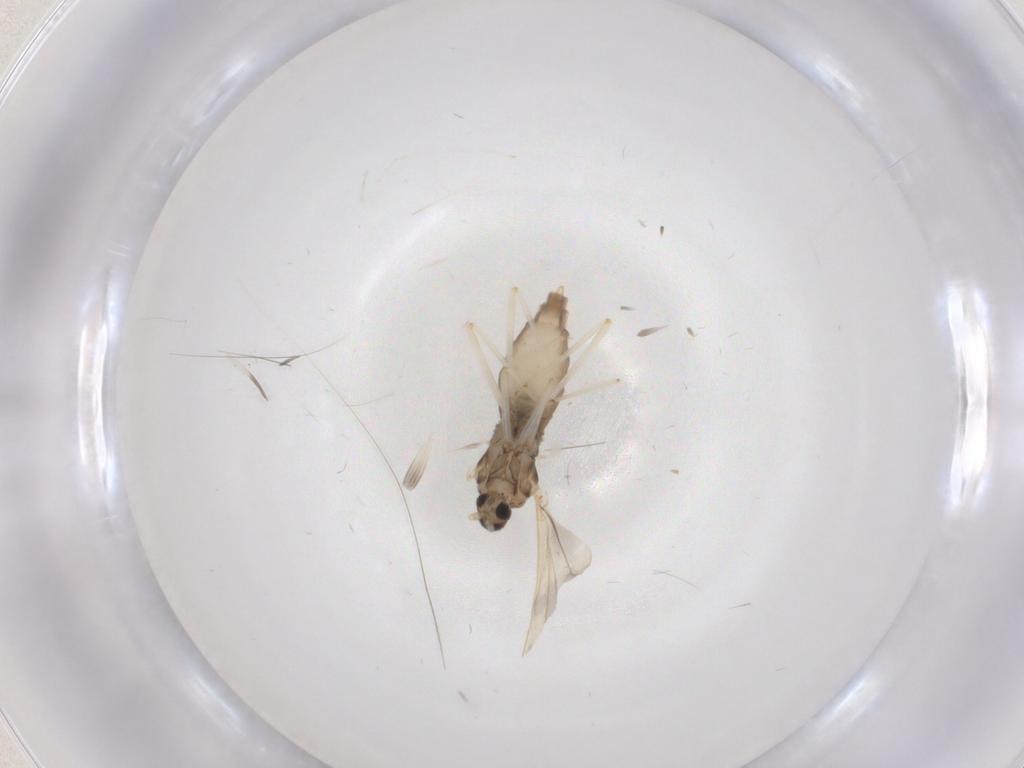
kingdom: Animalia
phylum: Arthropoda
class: Insecta
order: Diptera
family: Cecidomyiidae
